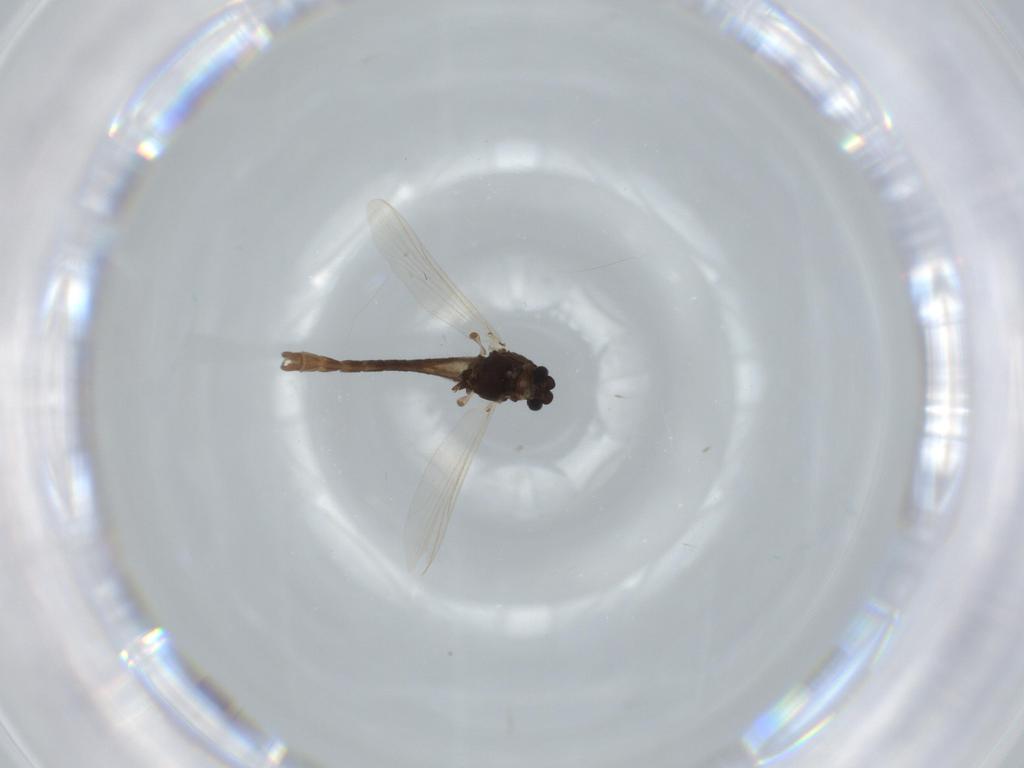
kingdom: Animalia
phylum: Arthropoda
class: Insecta
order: Diptera
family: Chironomidae
